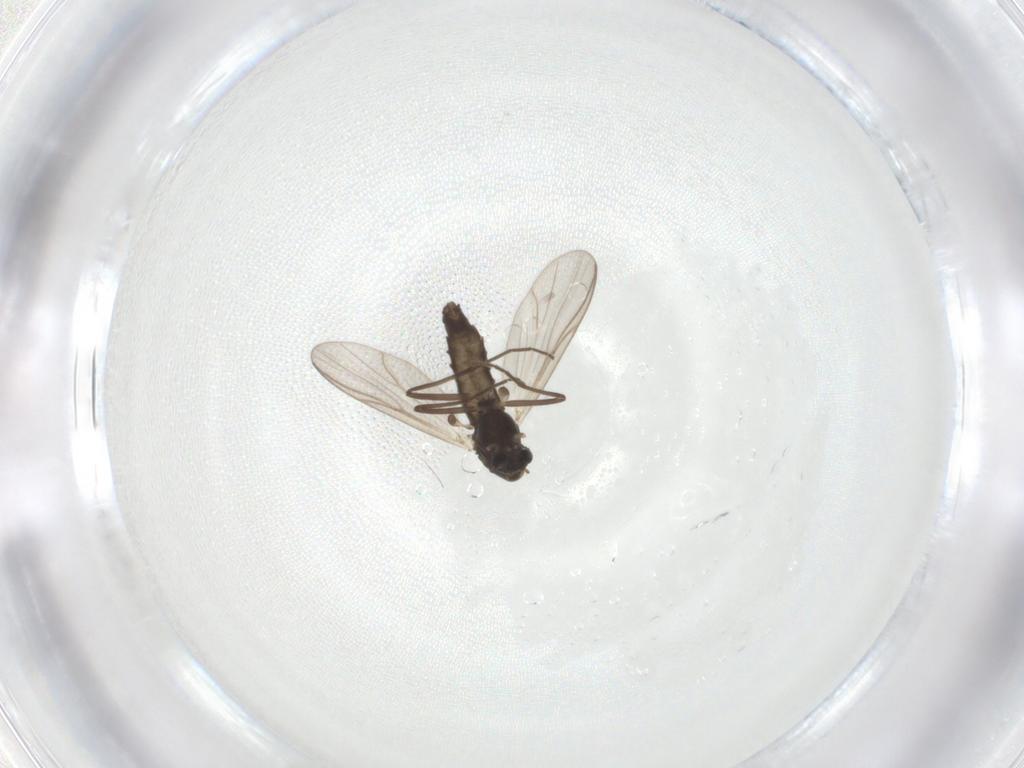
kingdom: Animalia
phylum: Arthropoda
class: Insecta
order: Diptera
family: Chironomidae
